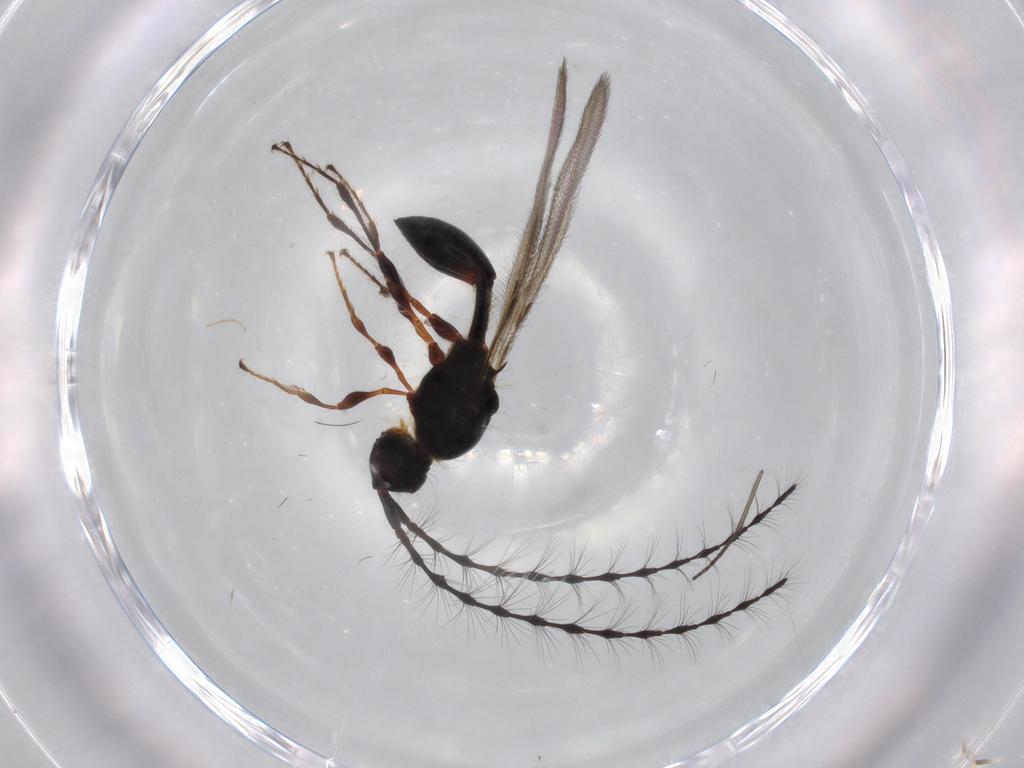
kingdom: Animalia
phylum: Arthropoda
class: Insecta
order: Hymenoptera
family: Diapriidae
